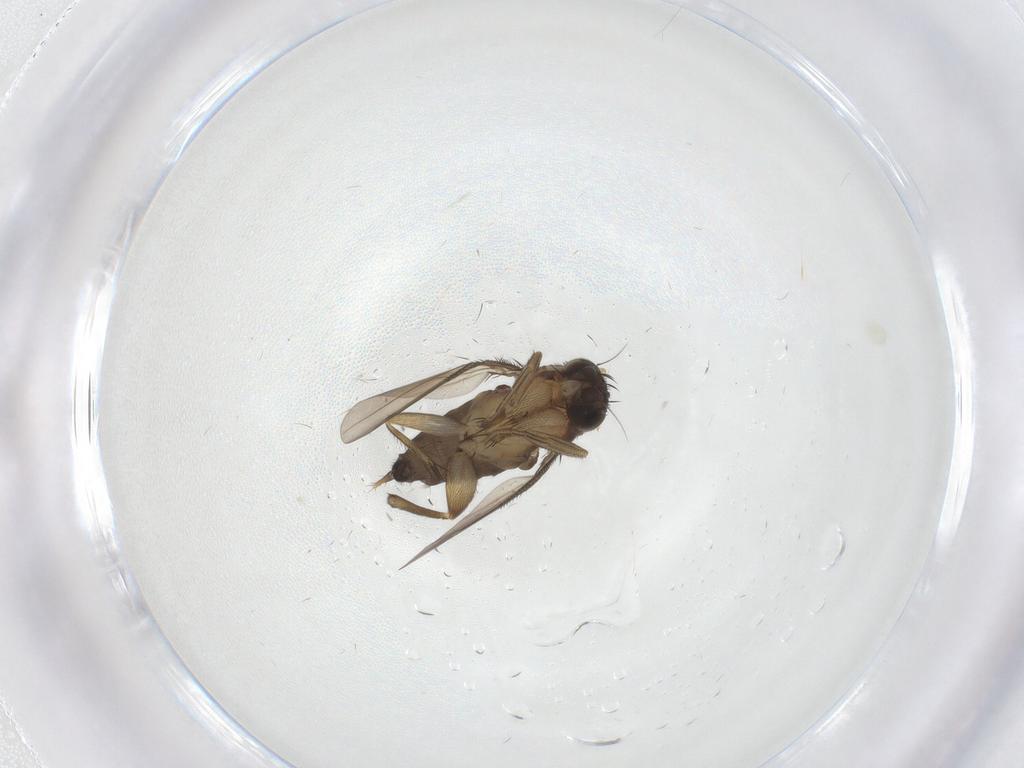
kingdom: Animalia
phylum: Arthropoda
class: Insecta
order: Diptera
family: Phoridae
